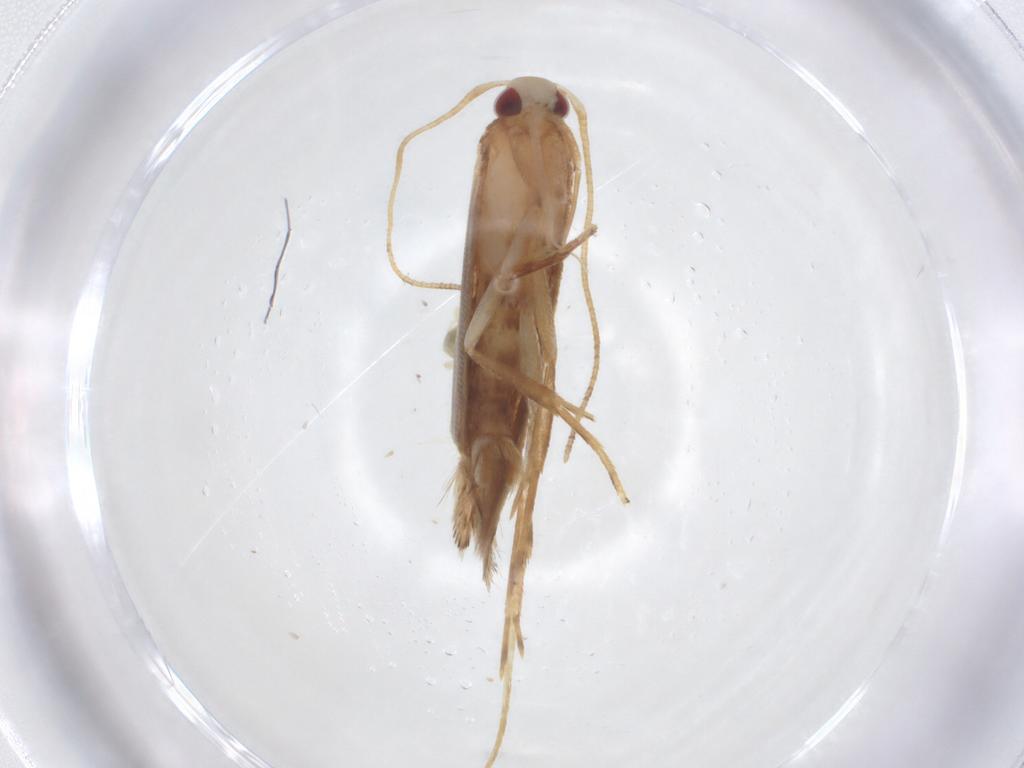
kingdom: Animalia
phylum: Arthropoda
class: Insecta
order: Lepidoptera
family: Cosmopterigidae
